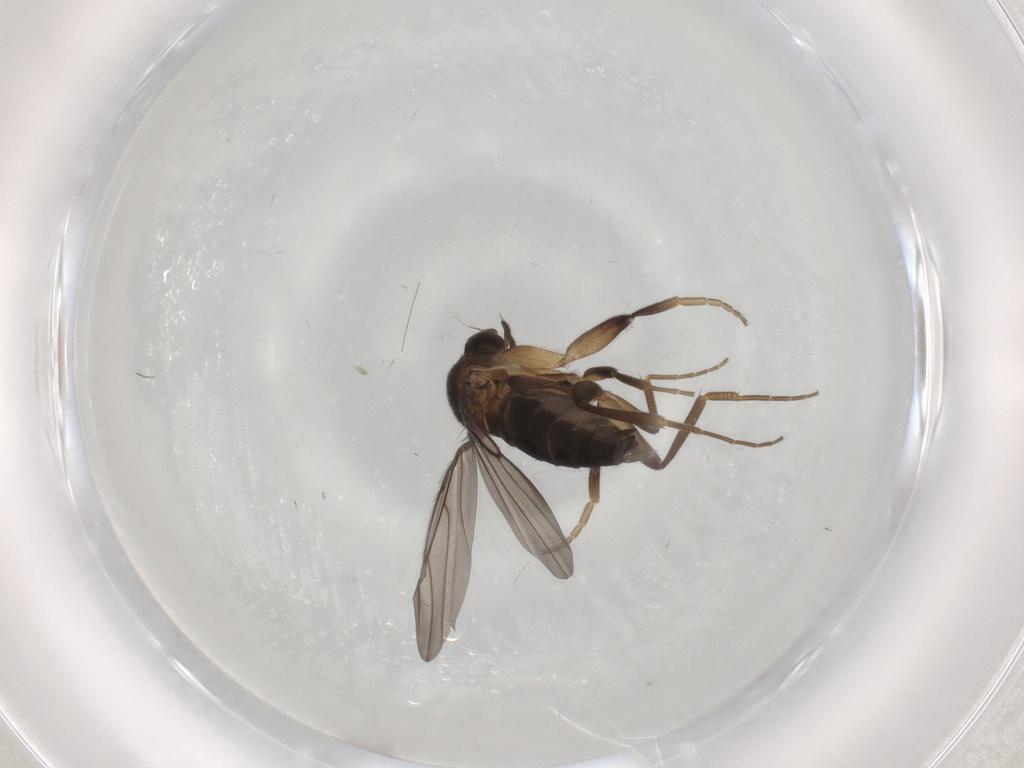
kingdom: Animalia
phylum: Arthropoda
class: Insecta
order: Diptera
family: Phoridae
